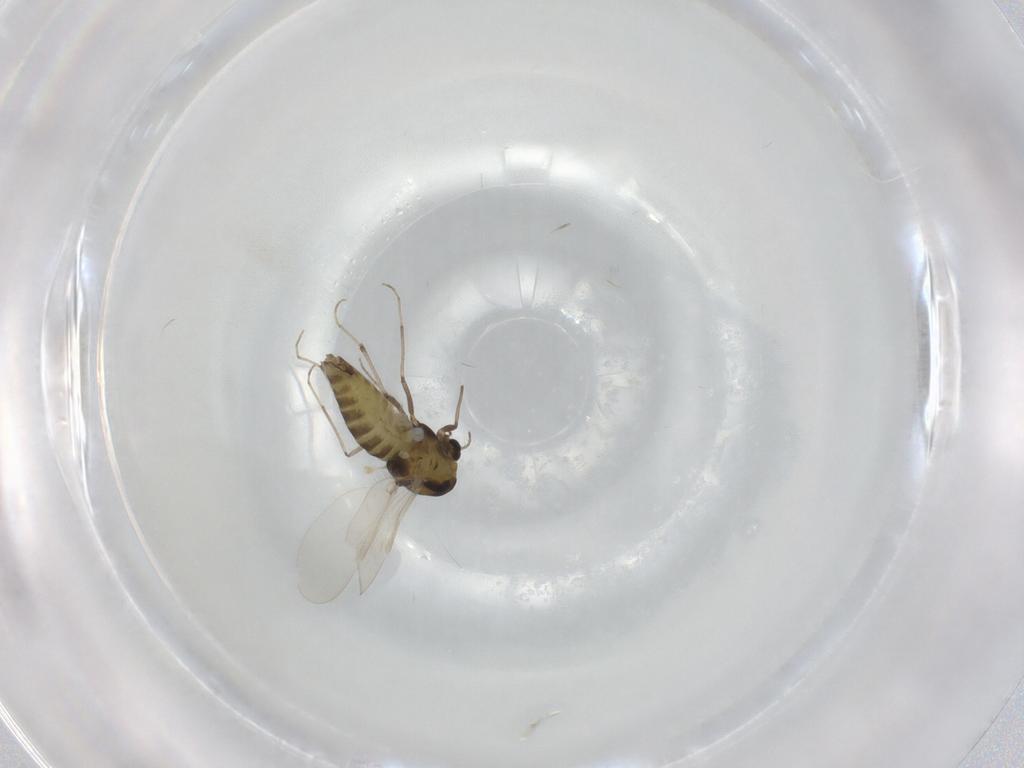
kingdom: Animalia
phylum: Arthropoda
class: Insecta
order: Diptera
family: Chironomidae
